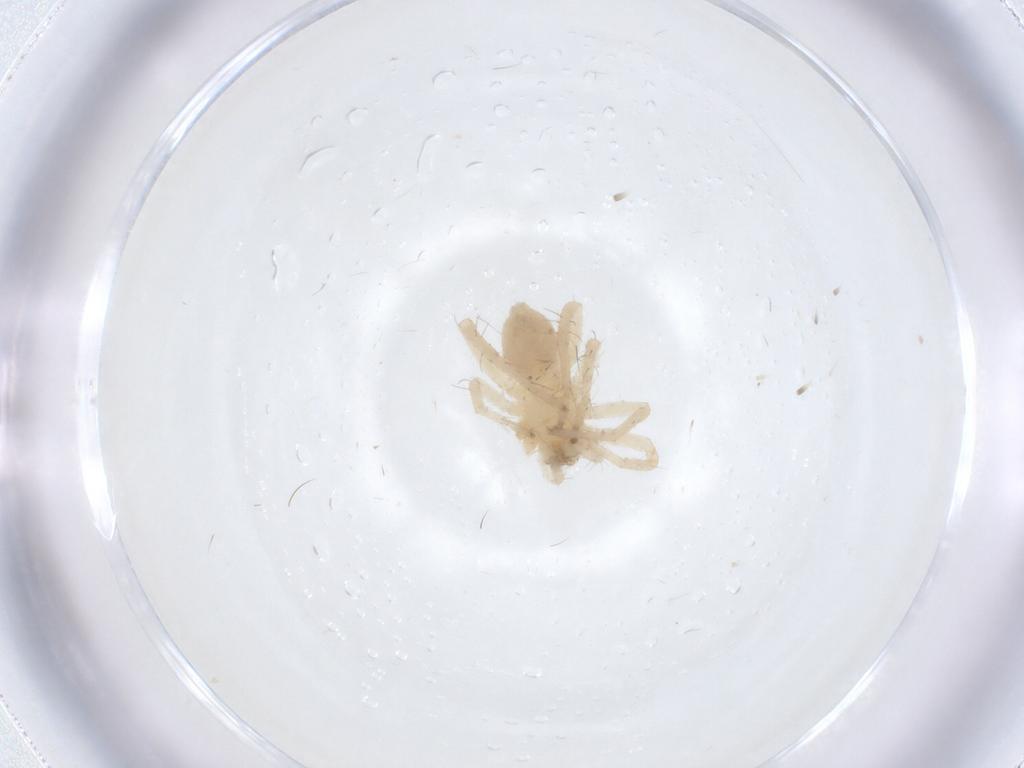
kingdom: Animalia
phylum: Arthropoda
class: Arachnida
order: Araneae
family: Anyphaenidae
